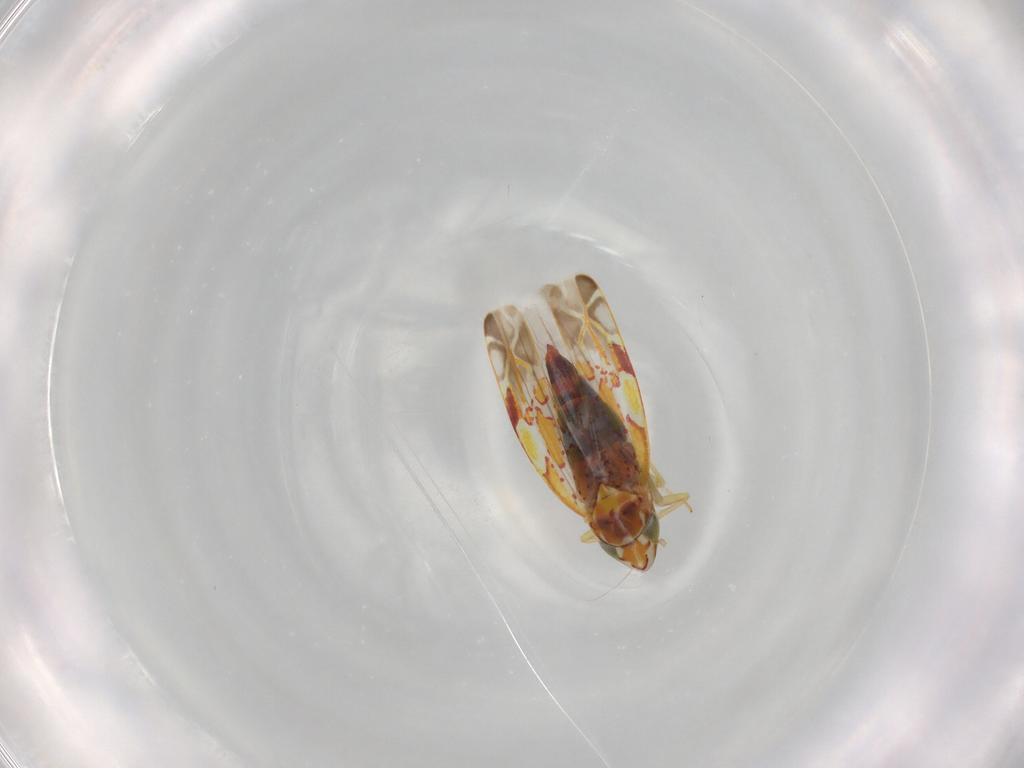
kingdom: Animalia
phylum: Arthropoda
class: Insecta
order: Hemiptera
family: Cicadellidae
